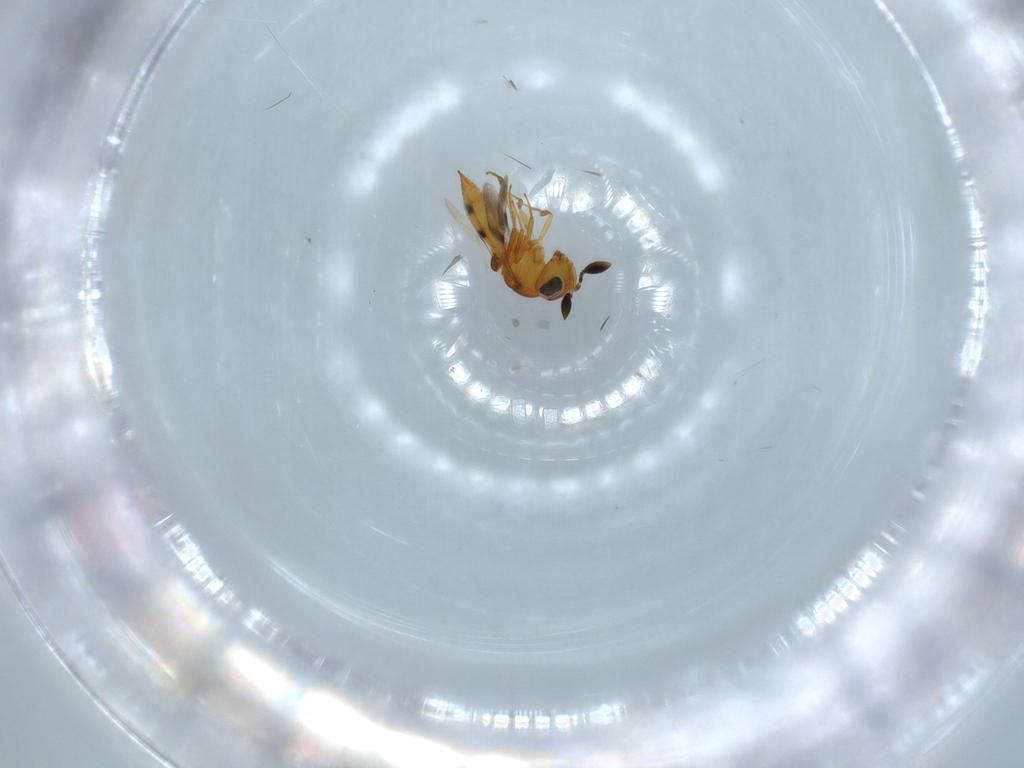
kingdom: Animalia
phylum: Arthropoda
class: Insecta
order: Hymenoptera
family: Scelionidae
